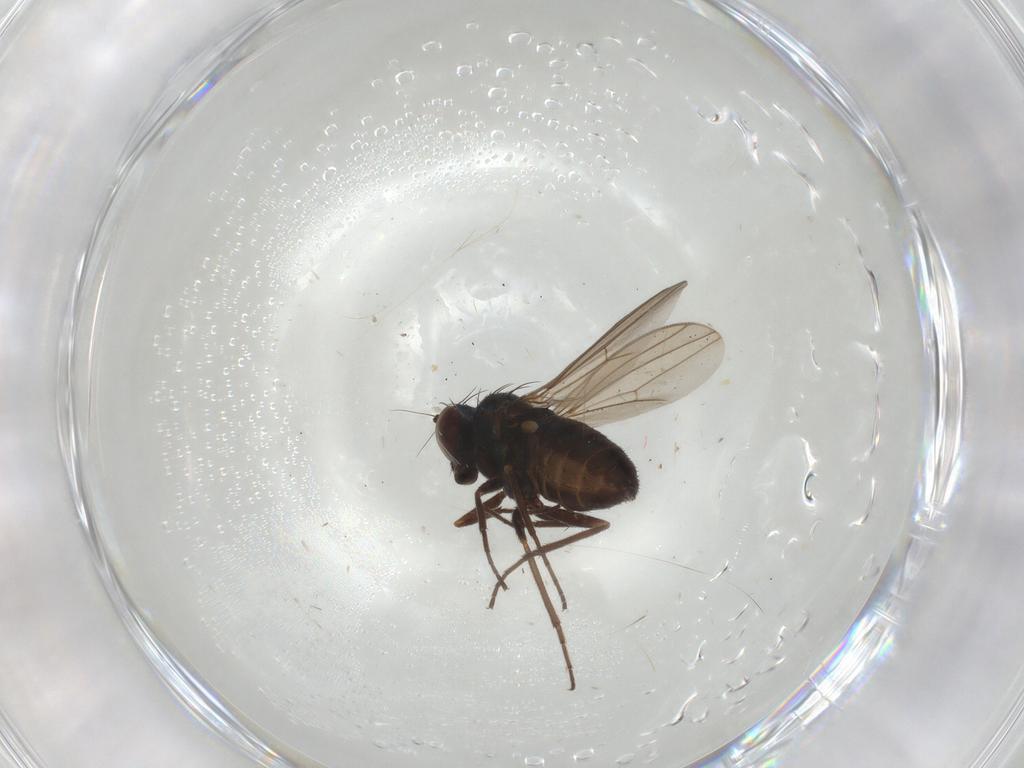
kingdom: Animalia
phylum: Arthropoda
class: Insecta
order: Diptera
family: Dolichopodidae
